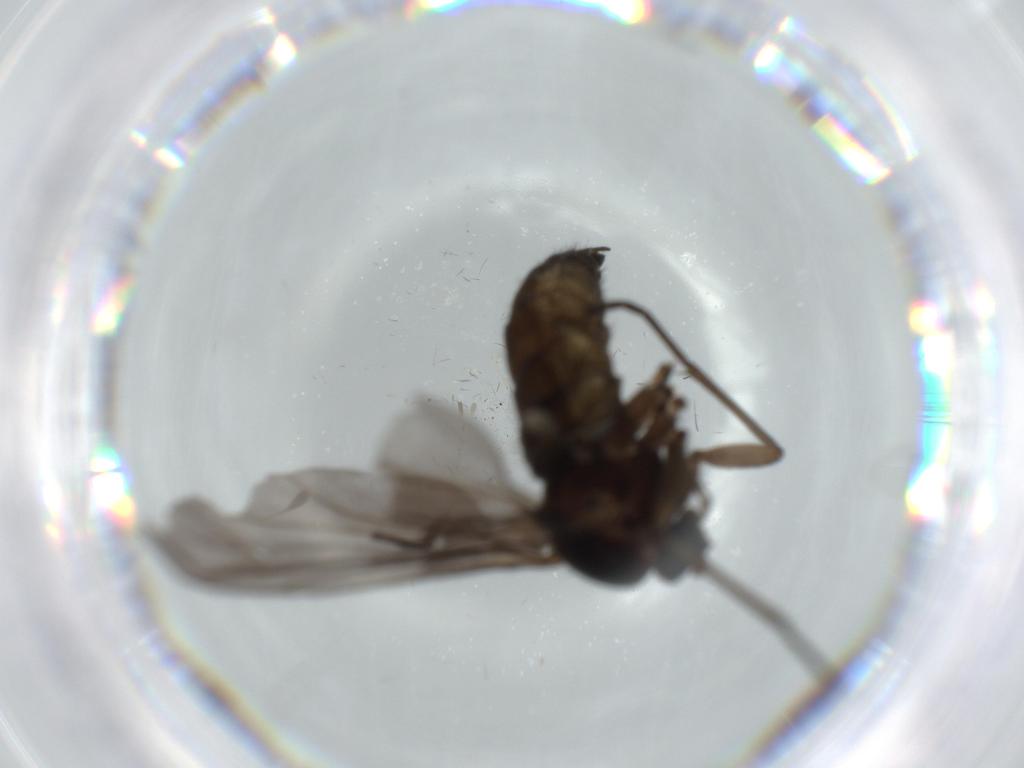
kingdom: Animalia
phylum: Arthropoda
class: Insecta
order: Diptera
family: Sciaridae
